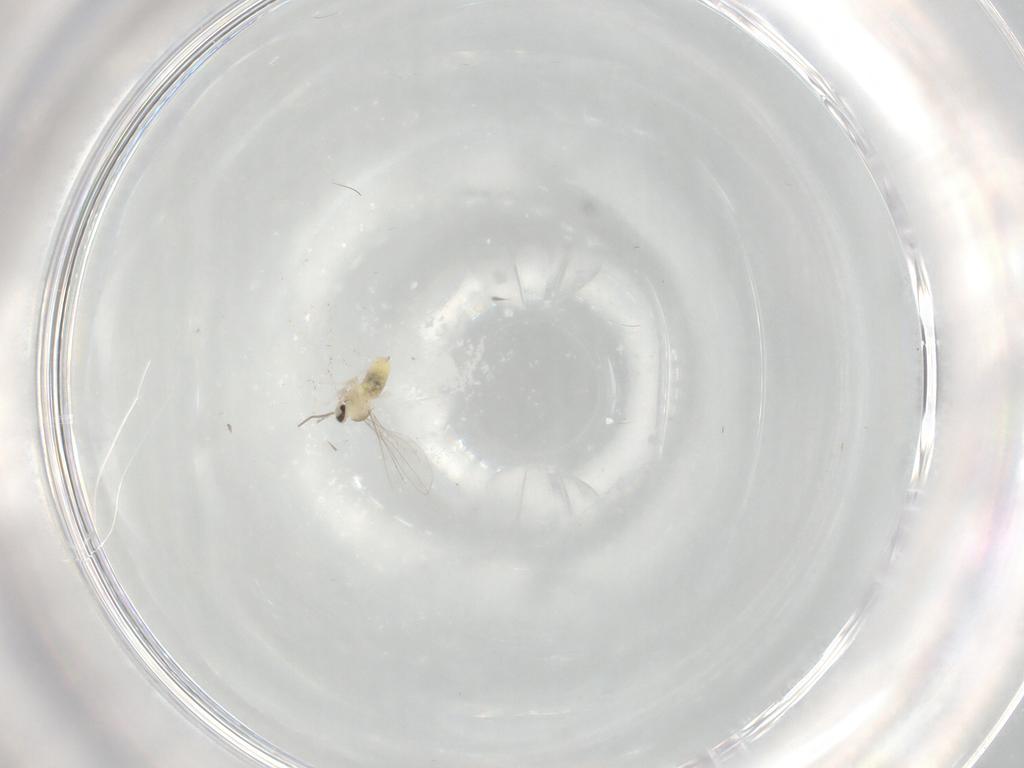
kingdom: Animalia
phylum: Arthropoda
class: Insecta
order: Diptera
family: Cecidomyiidae
